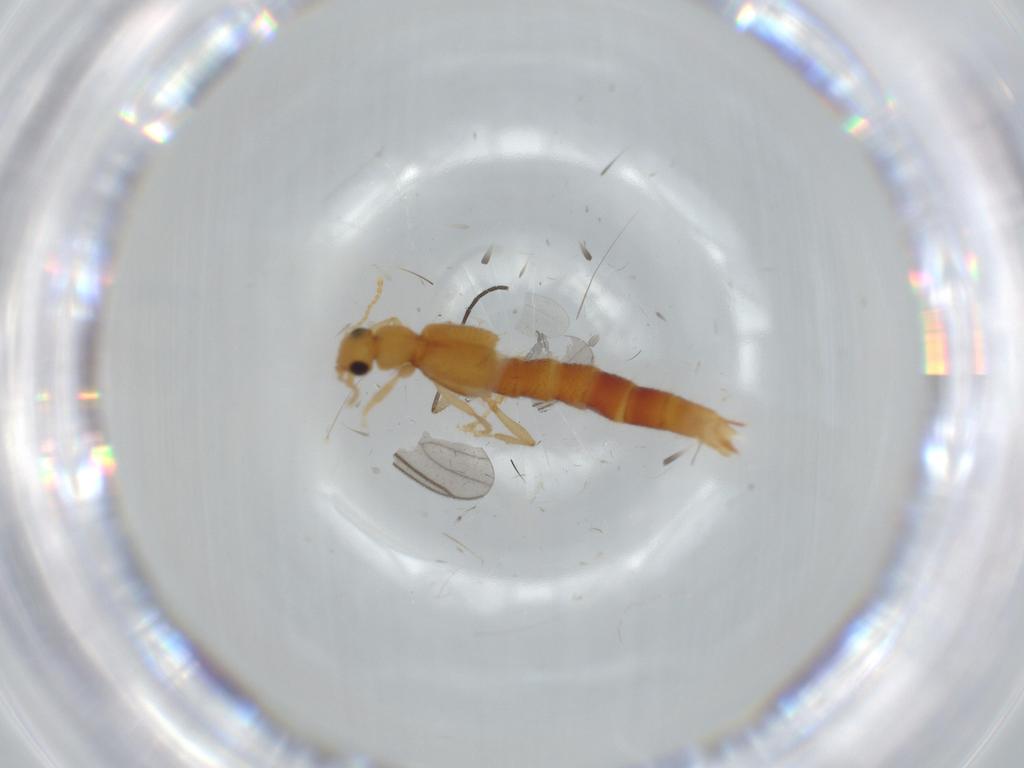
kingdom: Animalia
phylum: Arthropoda
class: Insecta
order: Coleoptera
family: Staphylinidae
